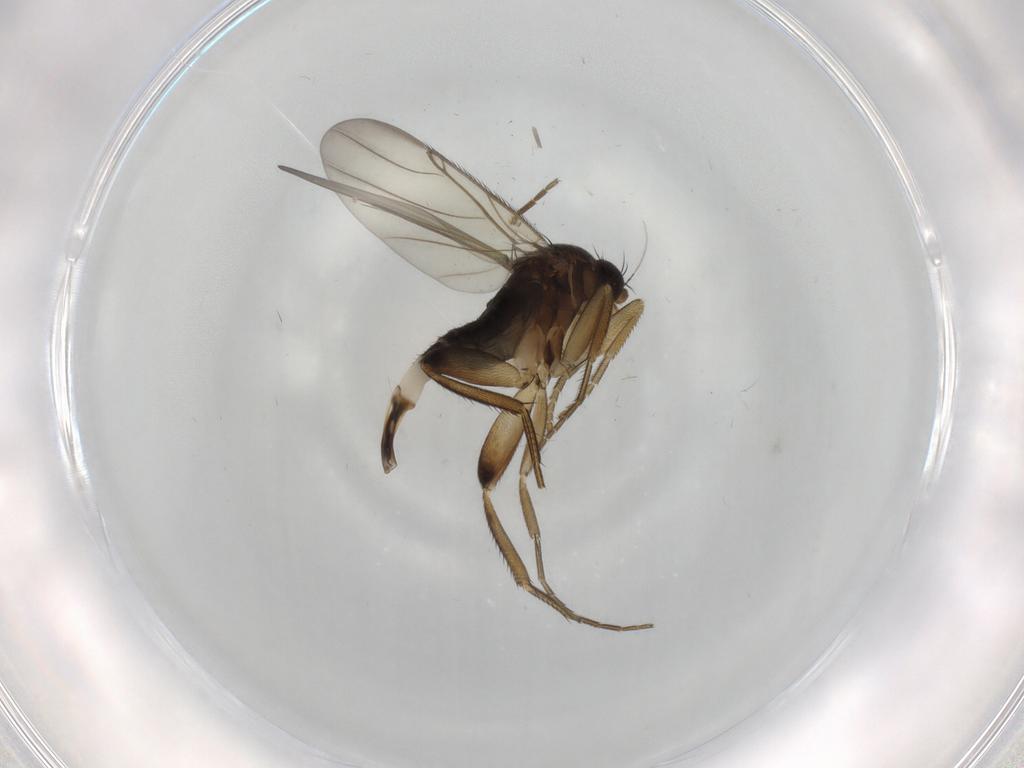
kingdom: Animalia
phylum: Arthropoda
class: Insecta
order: Diptera
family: Phoridae
